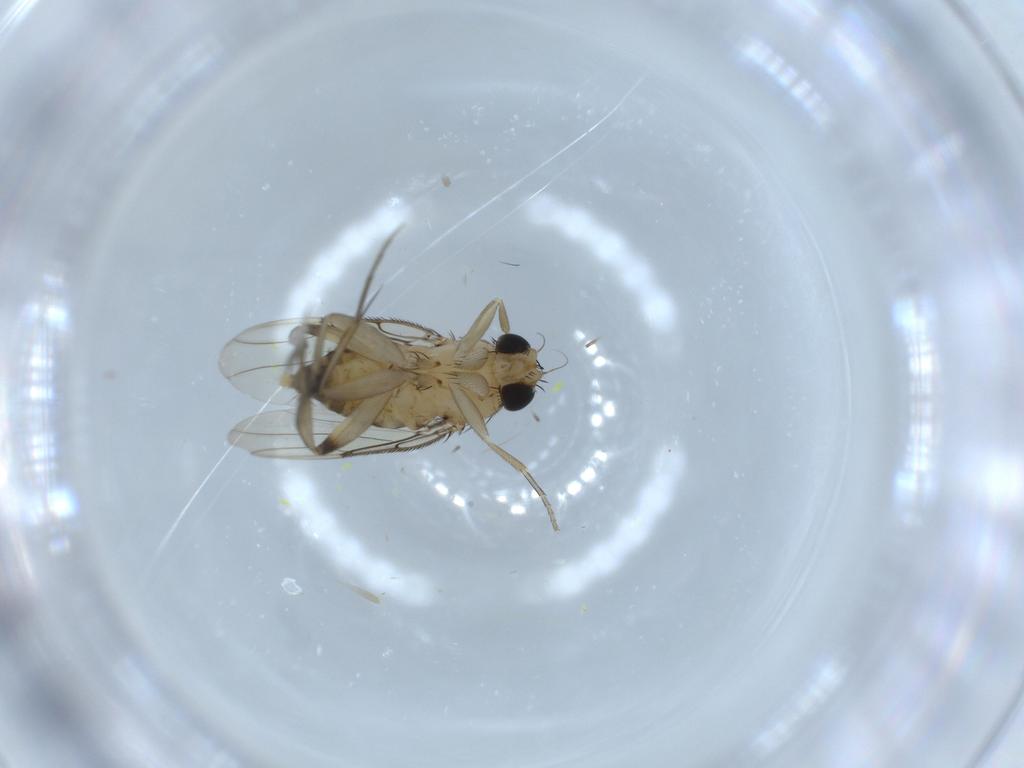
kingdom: Animalia
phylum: Arthropoda
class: Insecta
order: Diptera
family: Phoridae
